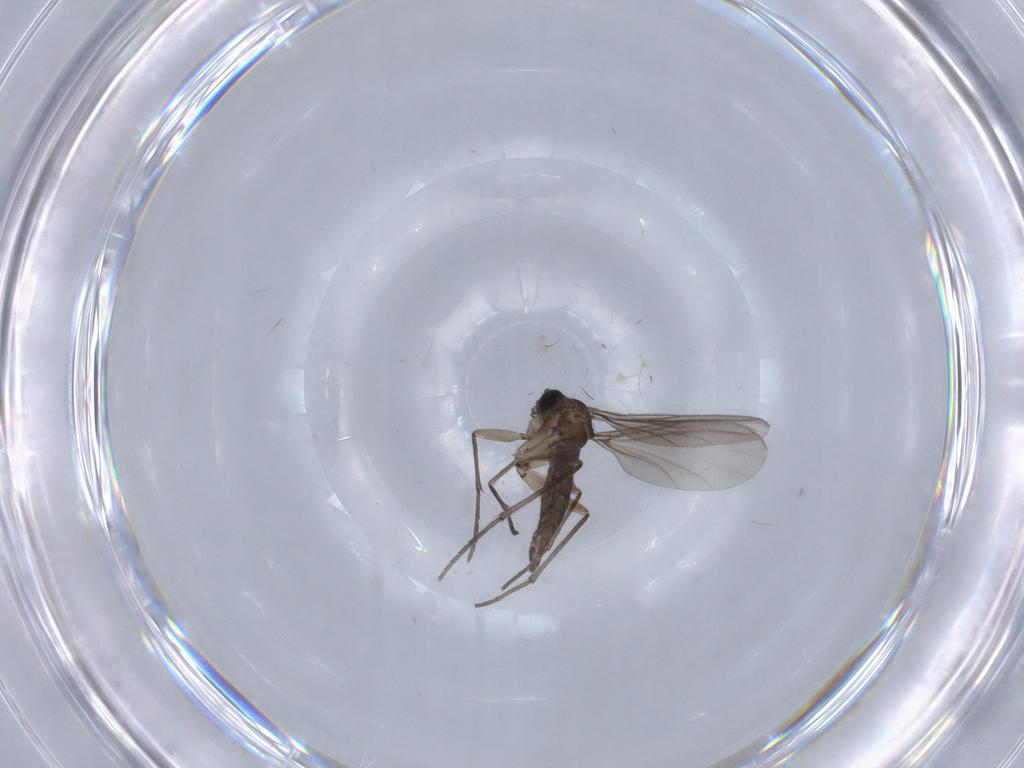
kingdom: Animalia
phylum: Arthropoda
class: Insecta
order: Diptera
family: Sciaridae
